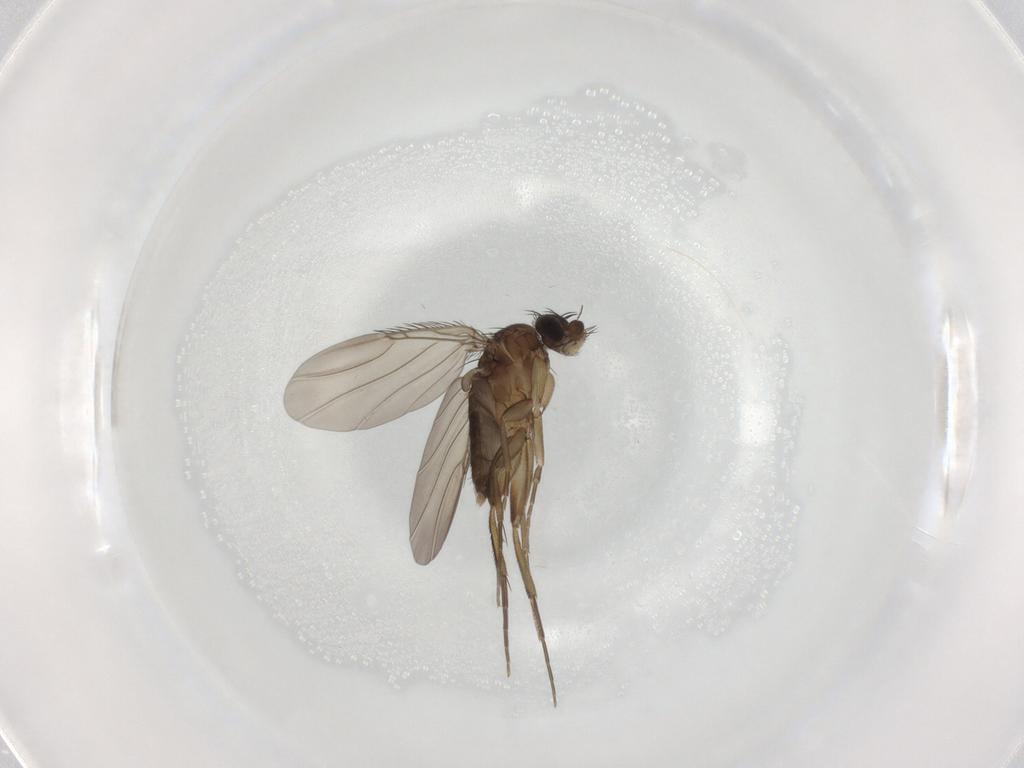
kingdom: Animalia
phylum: Arthropoda
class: Insecta
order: Diptera
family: Phoridae
